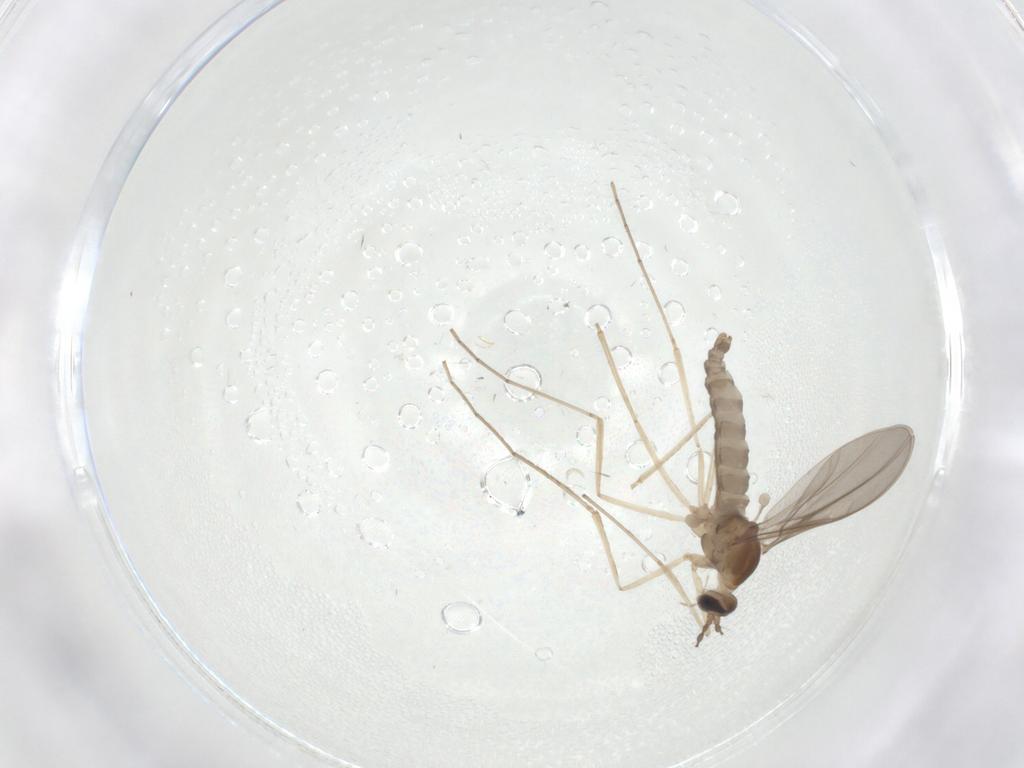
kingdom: Animalia
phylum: Arthropoda
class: Insecta
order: Diptera
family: Cecidomyiidae
